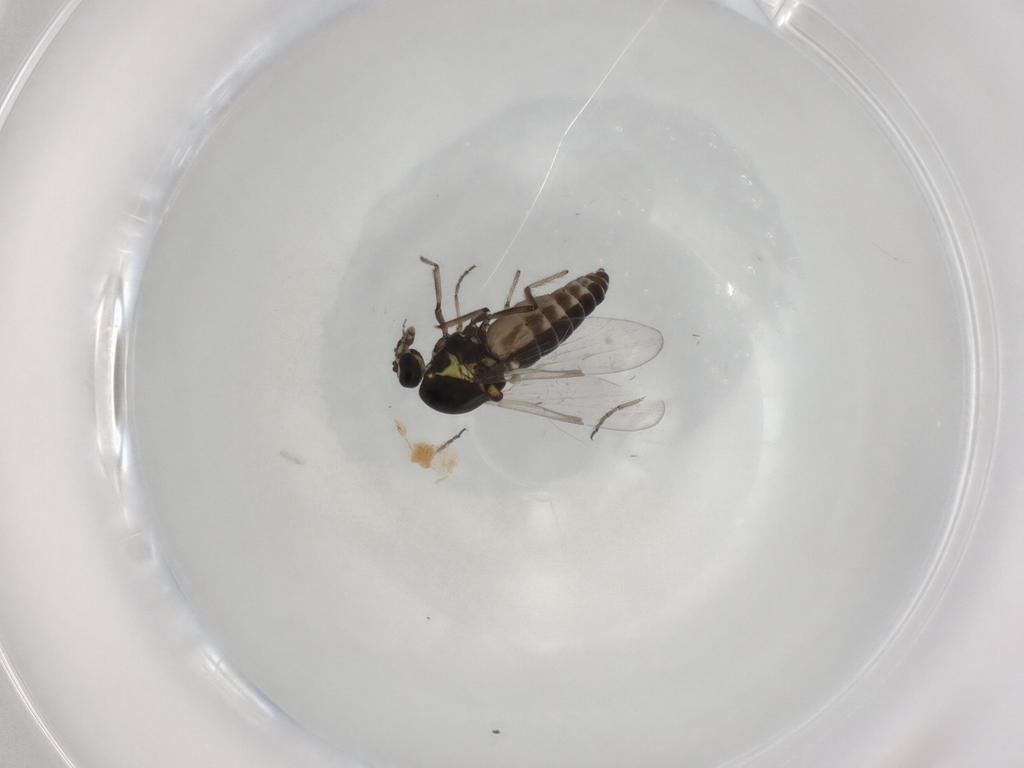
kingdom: Animalia
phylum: Arthropoda
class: Insecta
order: Diptera
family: Ceratopogonidae
